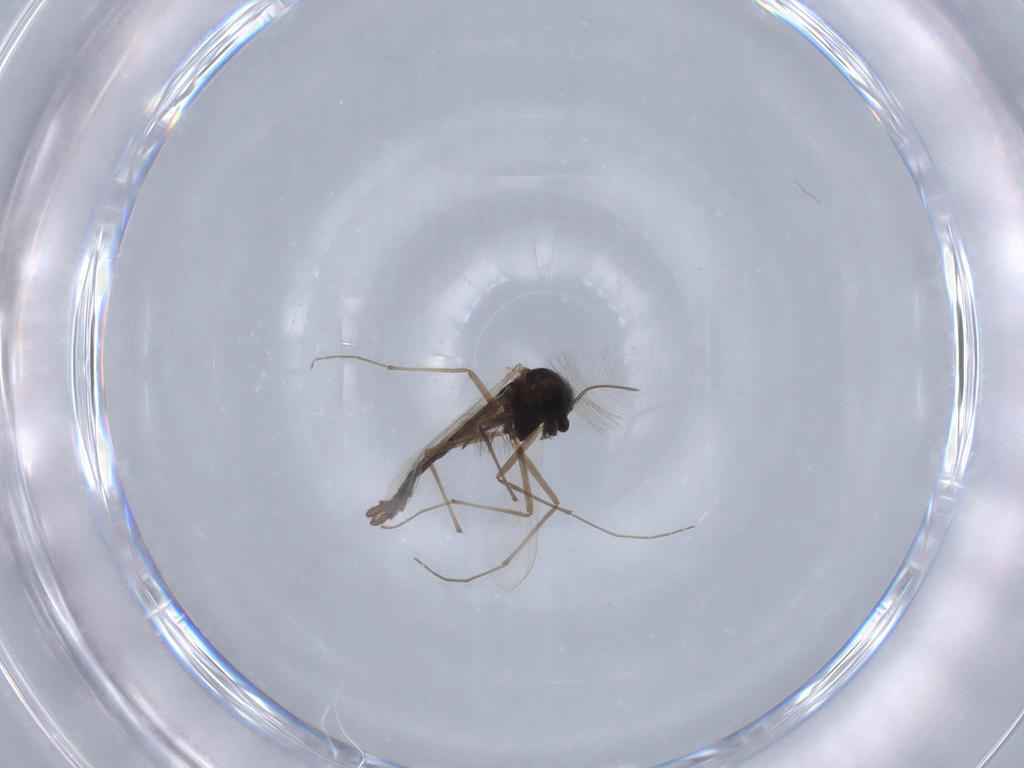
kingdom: Animalia
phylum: Arthropoda
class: Insecta
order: Diptera
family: Chironomidae
